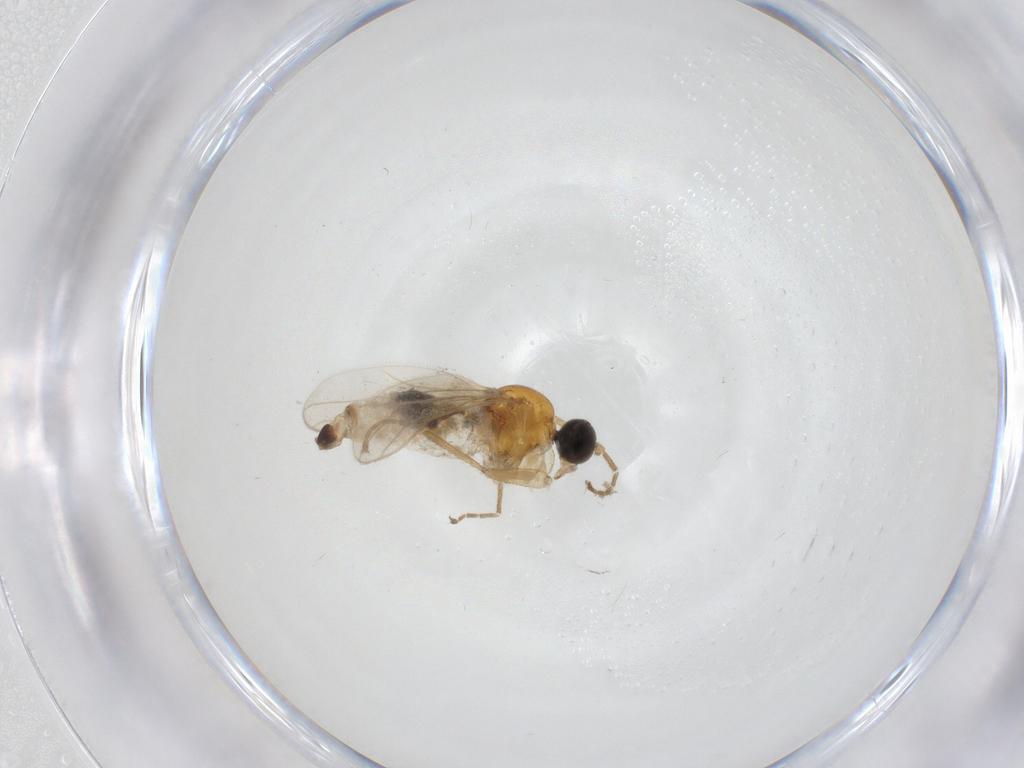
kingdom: Animalia
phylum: Arthropoda
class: Insecta
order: Diptera
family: Hybotidae
